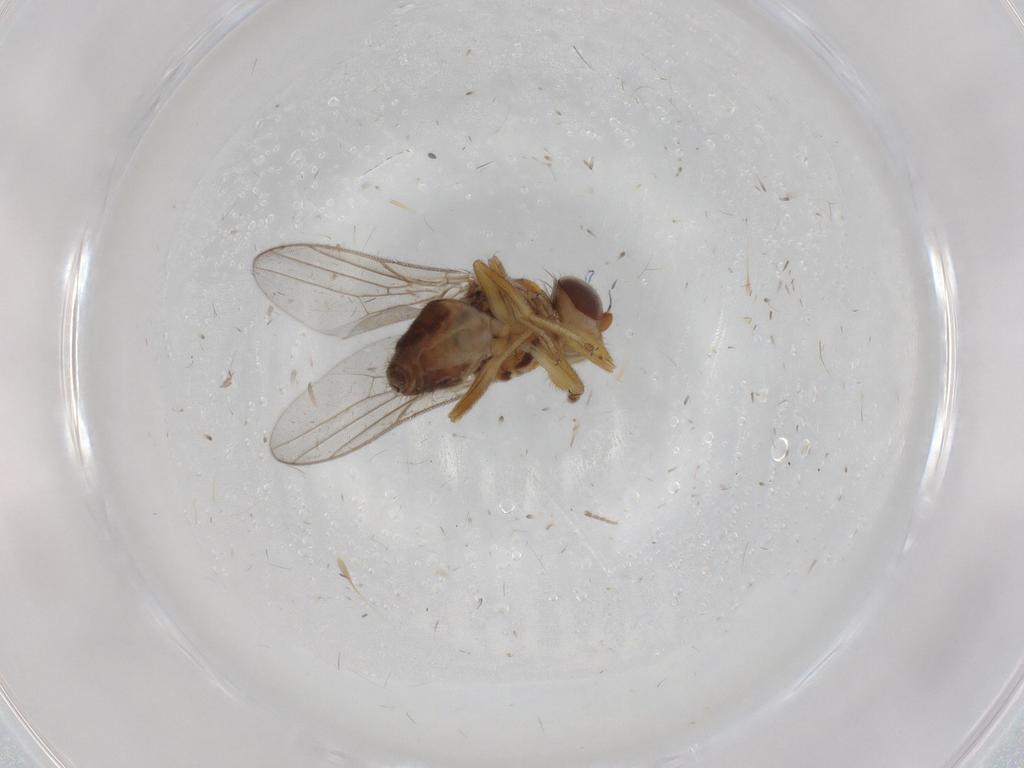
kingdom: Animalia
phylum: Arthropoda
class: Insecta
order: Diptera
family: Chloropidae
